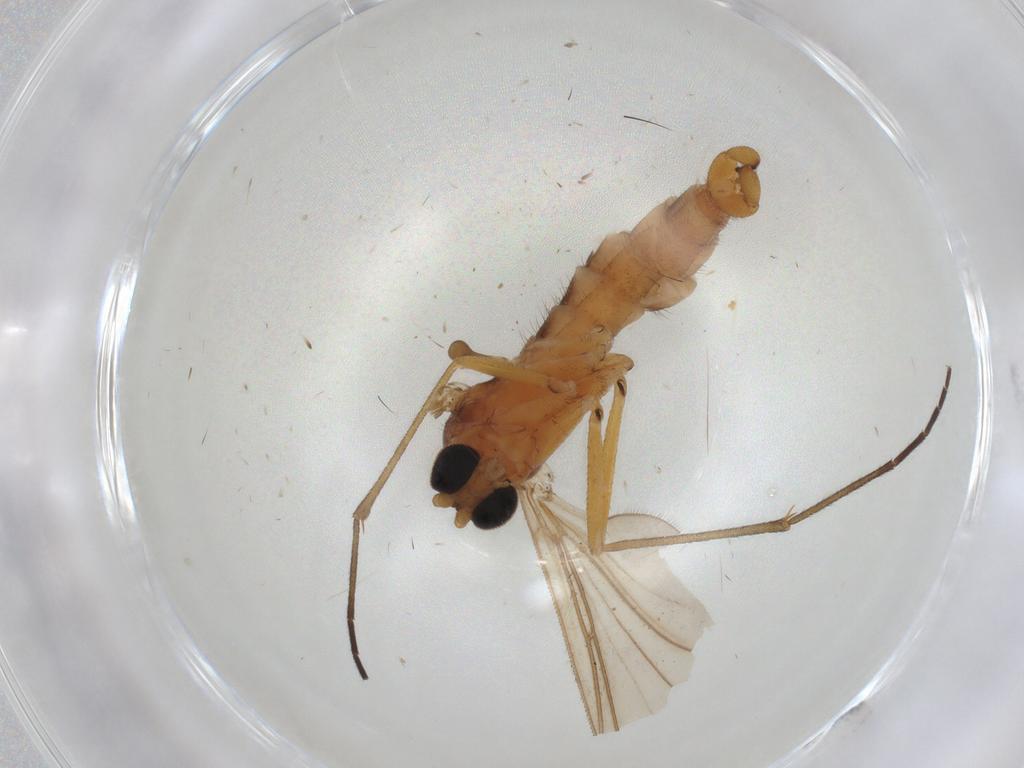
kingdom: Animalia
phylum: Arthropoda
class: Insecta
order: Diptera
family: Sciaridae
